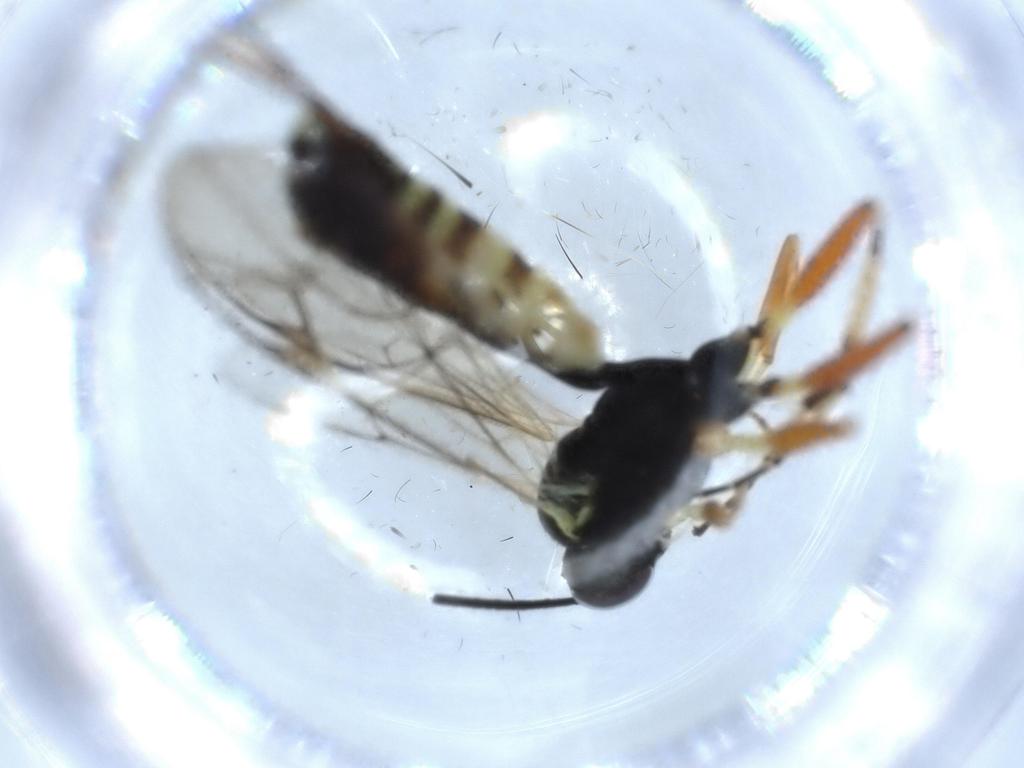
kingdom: Animalia
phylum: Arthropoda
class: Insecta
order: Hymenoptera
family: Ichneumonidae
